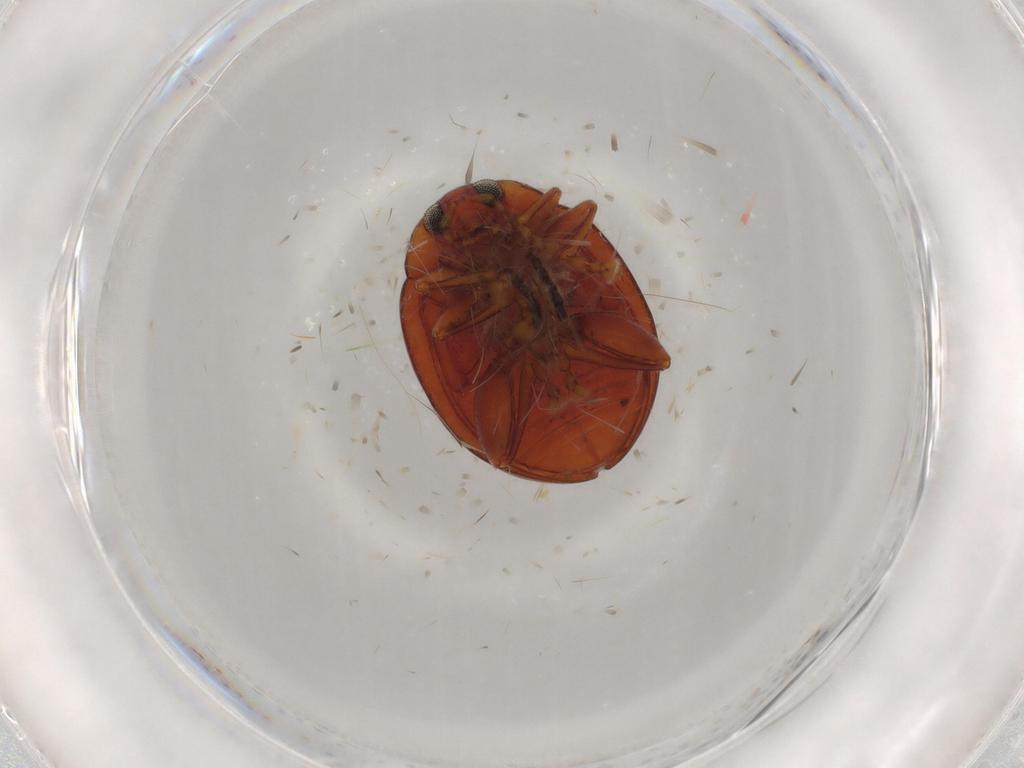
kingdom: Animalia
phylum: Arthropoda
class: Insecta
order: Coleoptera
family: Chrysomelidae
